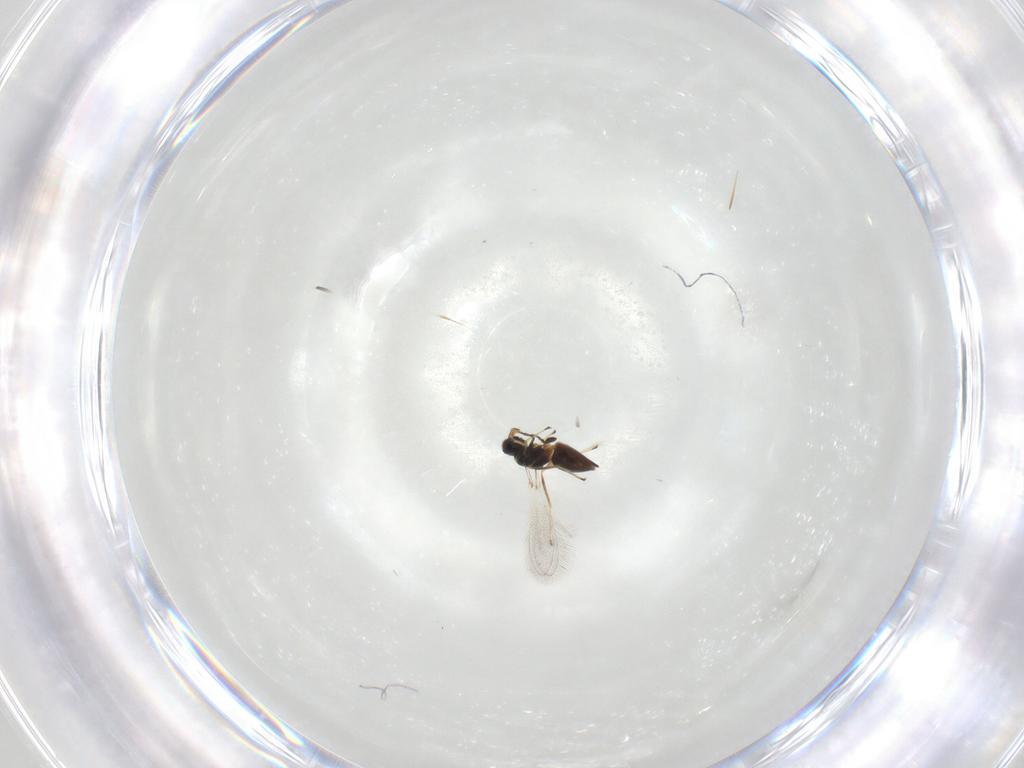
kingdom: Animalia
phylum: Arthropoda
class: Insecta
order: Hymenoptera
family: Mymaridae
